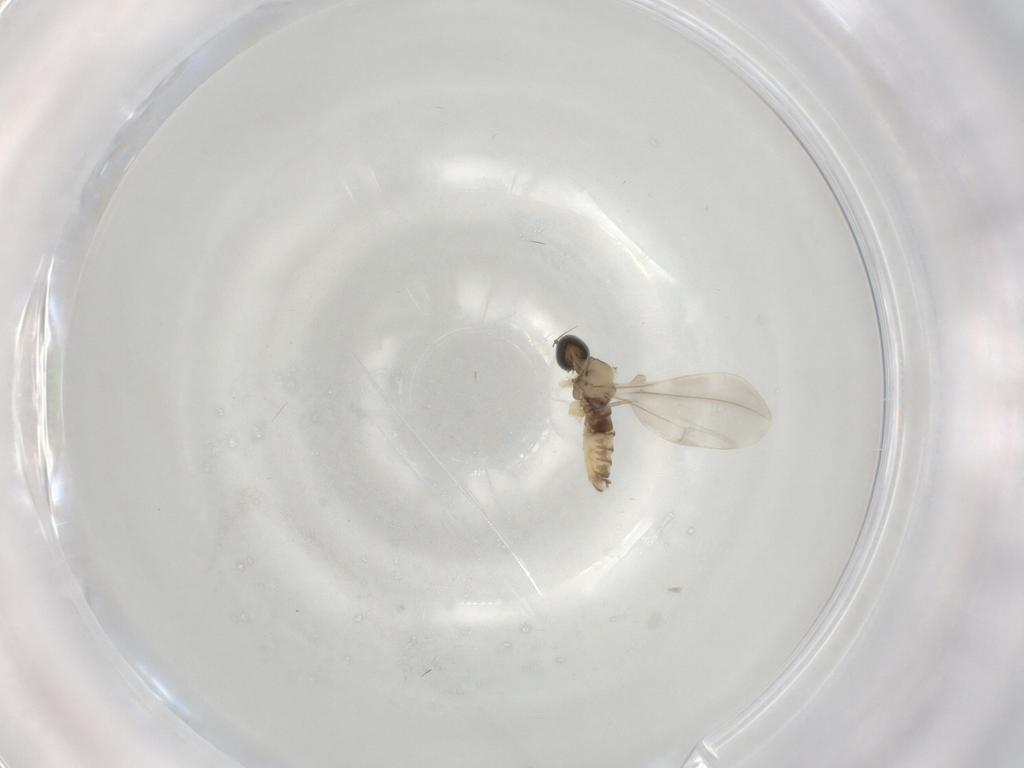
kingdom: Animalia
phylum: Arthropoda
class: Insecta
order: Diptera
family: Cecidomyiidae
